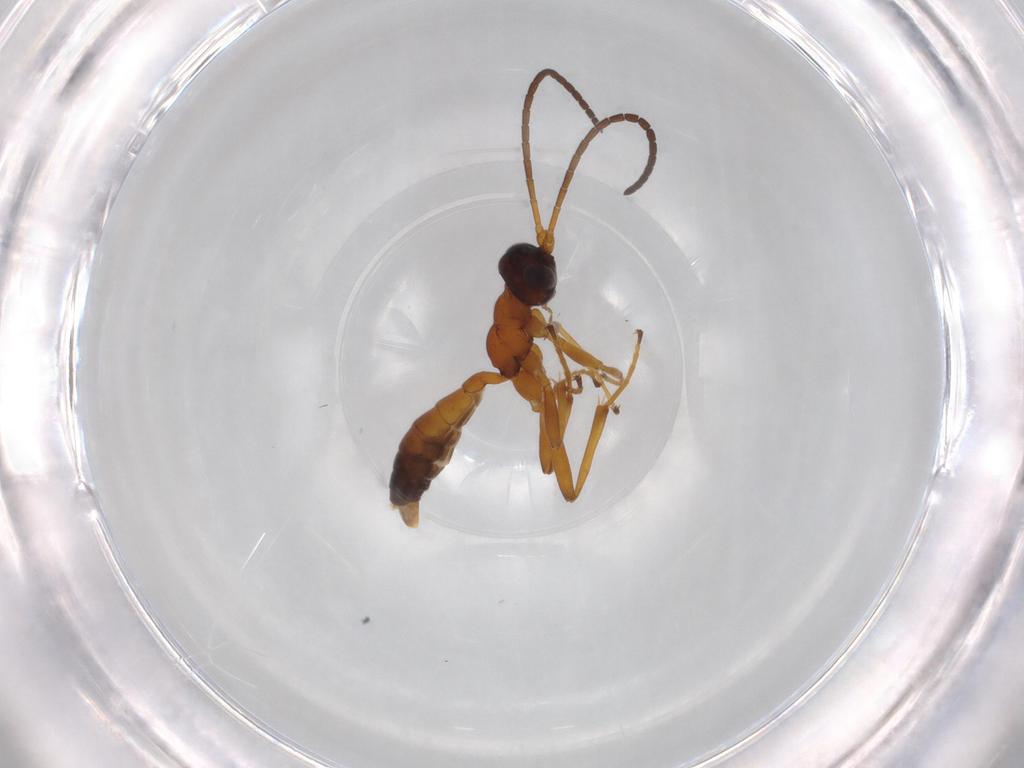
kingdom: Animalia
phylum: Arthropoda
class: Insecta
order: Hymenoptera
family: Ichneumonidae
